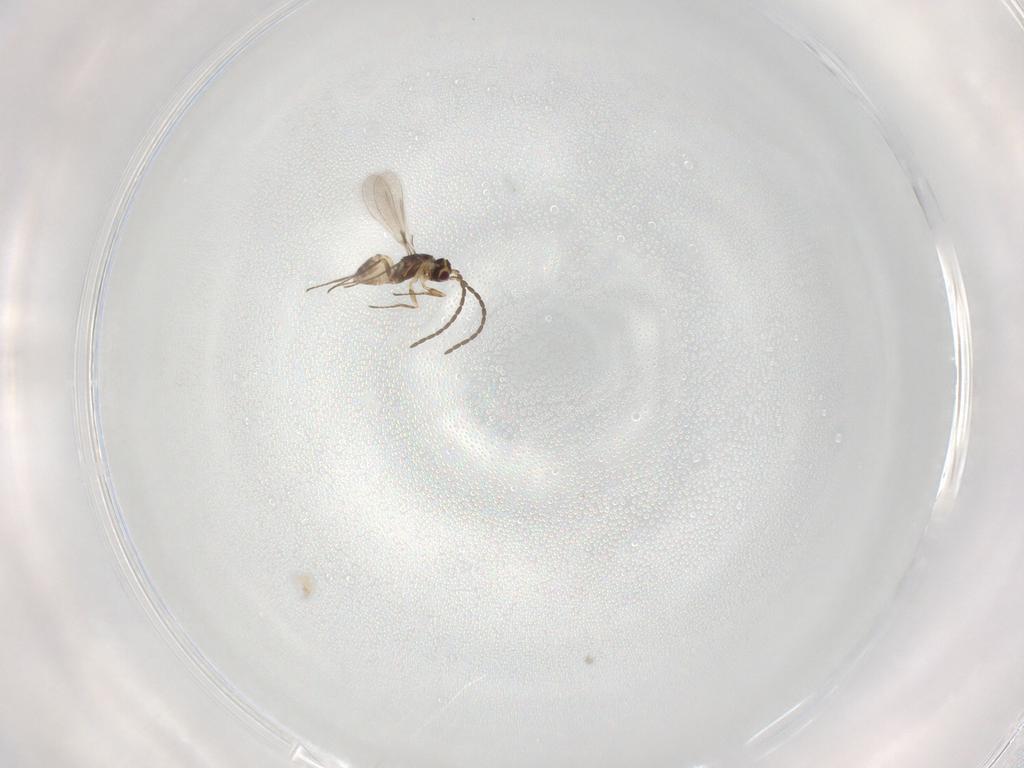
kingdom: Animalia
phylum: Arthropoda
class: Insecta
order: Hymenoptera
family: Mymaridae
